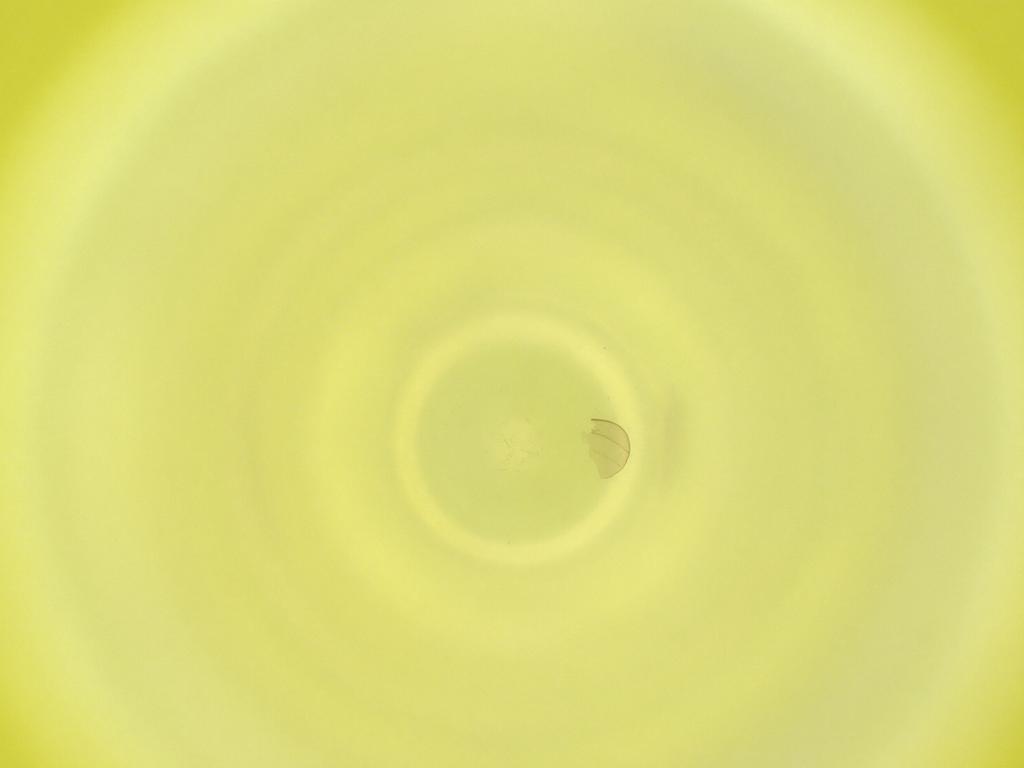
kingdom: Animalia
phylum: Arthropoda
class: Insecta
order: Diptera
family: Cecidomyiidae
